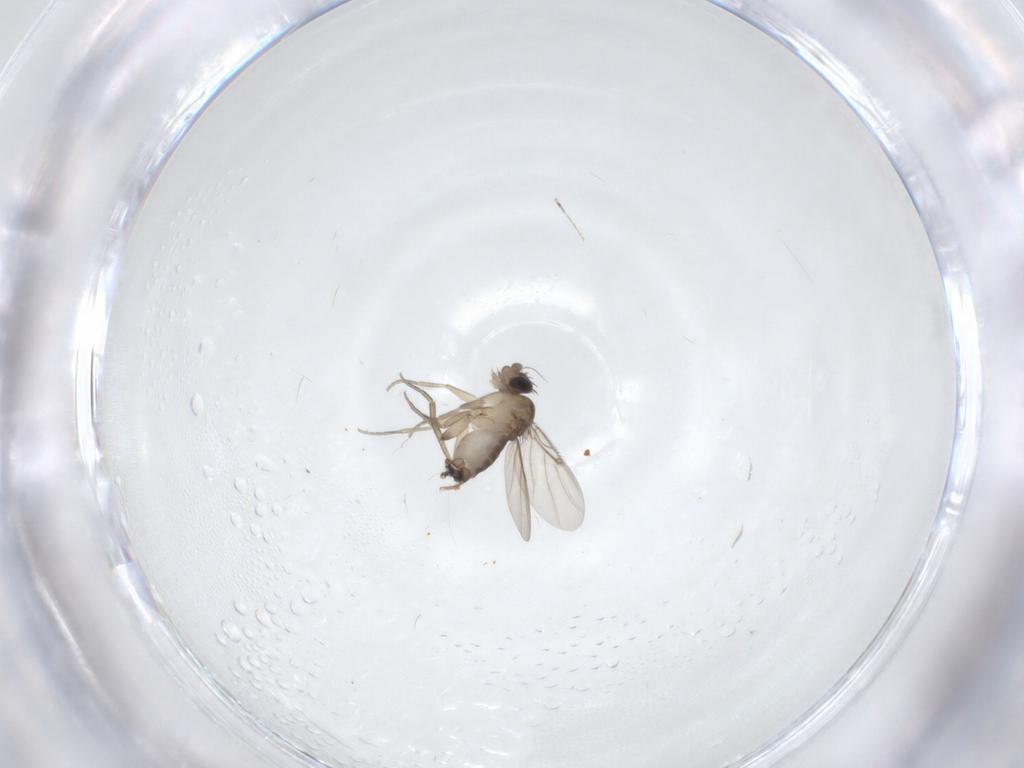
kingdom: Animalia
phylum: Arthropoda
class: Insecta
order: Diptera
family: Phoridae
